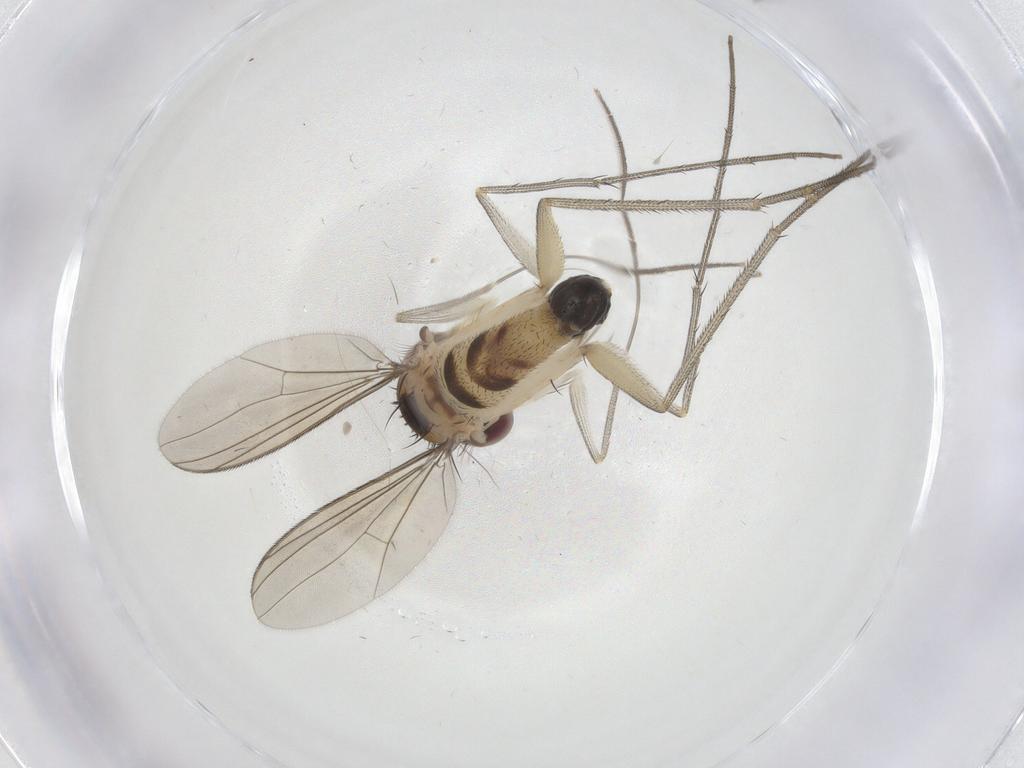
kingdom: Animalia
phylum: Arthropoda
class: Insecta
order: Diptera
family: Dolichopodidae
